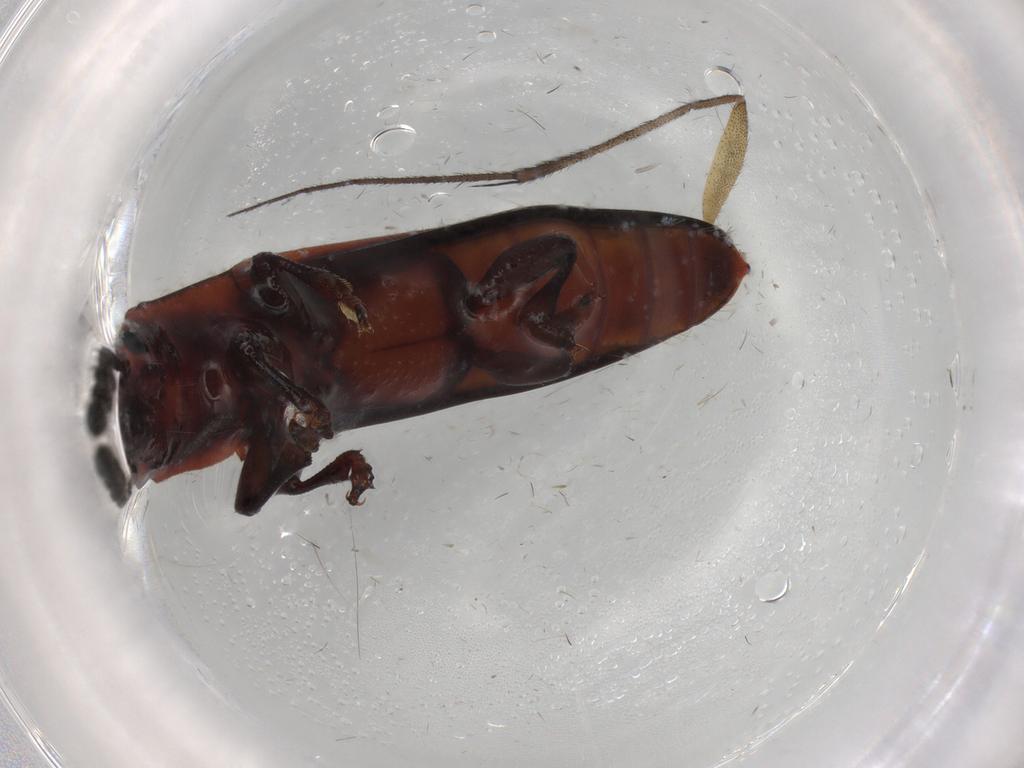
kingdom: Animalia
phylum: Arthropoda
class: Insecta
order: Coleoptera
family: Erotylidae
